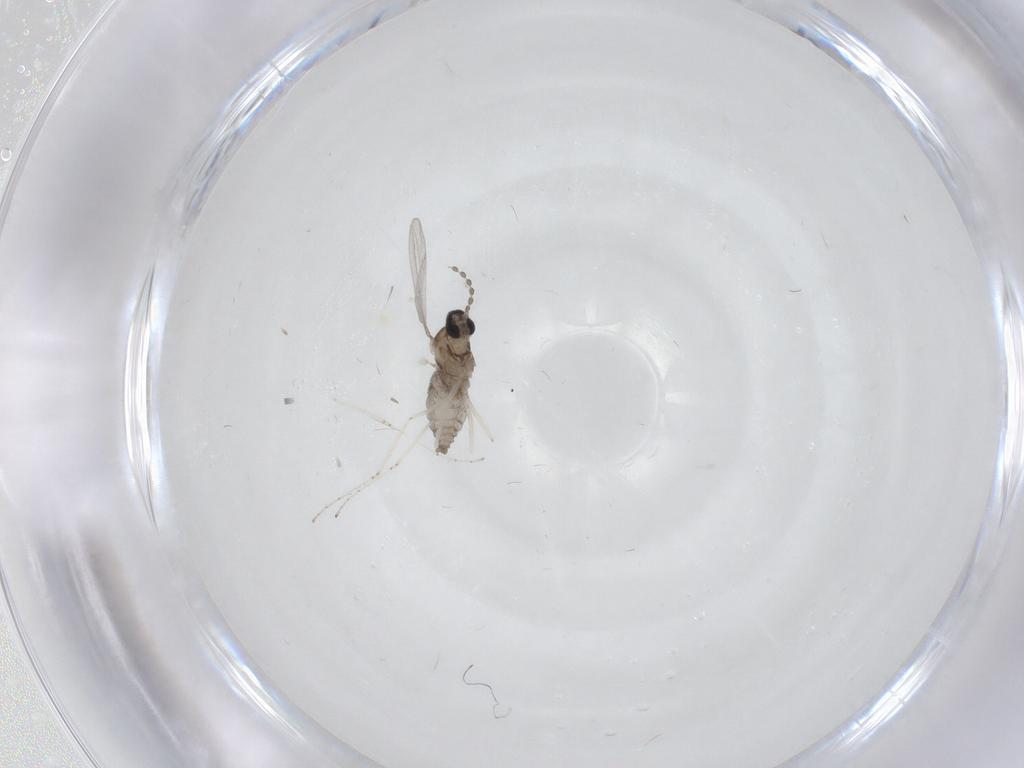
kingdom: Animalia
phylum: Arthropoda
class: Insecta
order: Diptera
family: Cecidomyiidae
